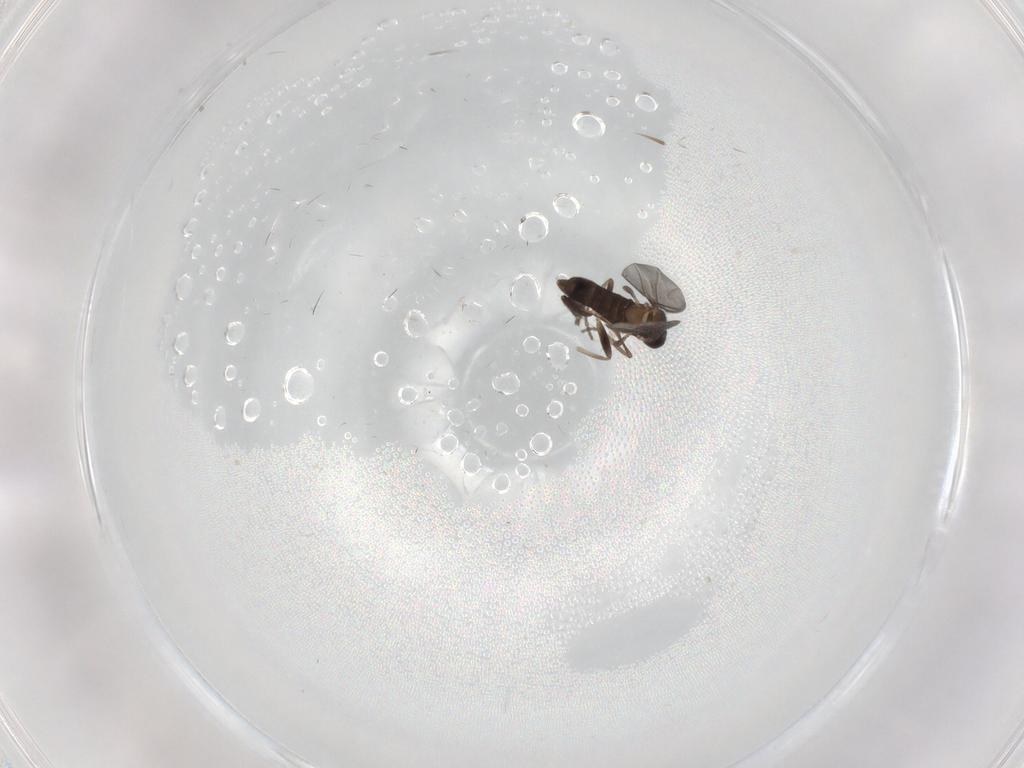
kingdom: Animalia
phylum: Arthropoda
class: Insecta
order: Diptera
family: Phoridae
